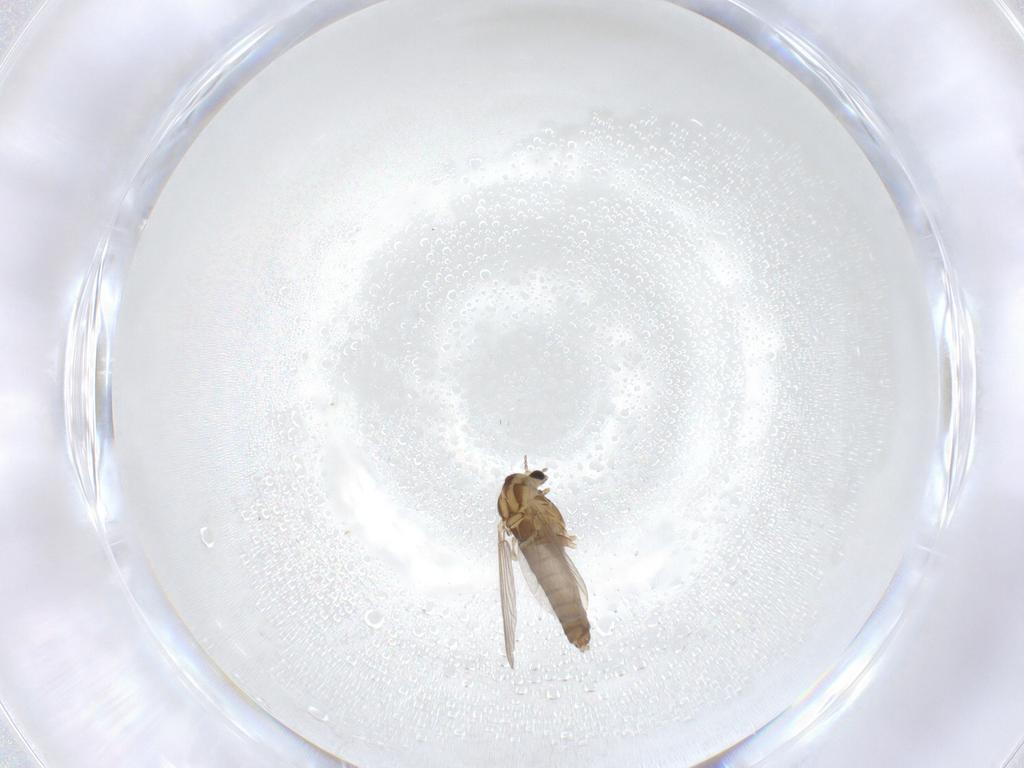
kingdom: Animalia
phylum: Arthropoda
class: Insecta
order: Diptera
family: Chironomidae
